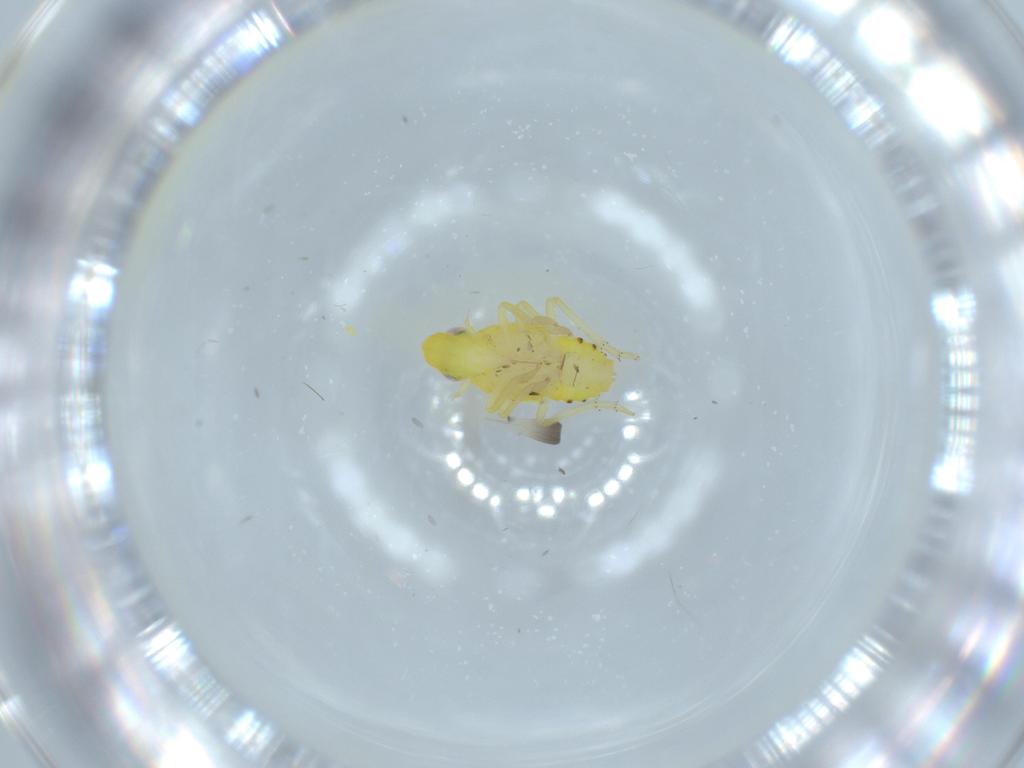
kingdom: Animalia
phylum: Arthropoda
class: Insecta
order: Hemiptera
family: Tropiduchidae
